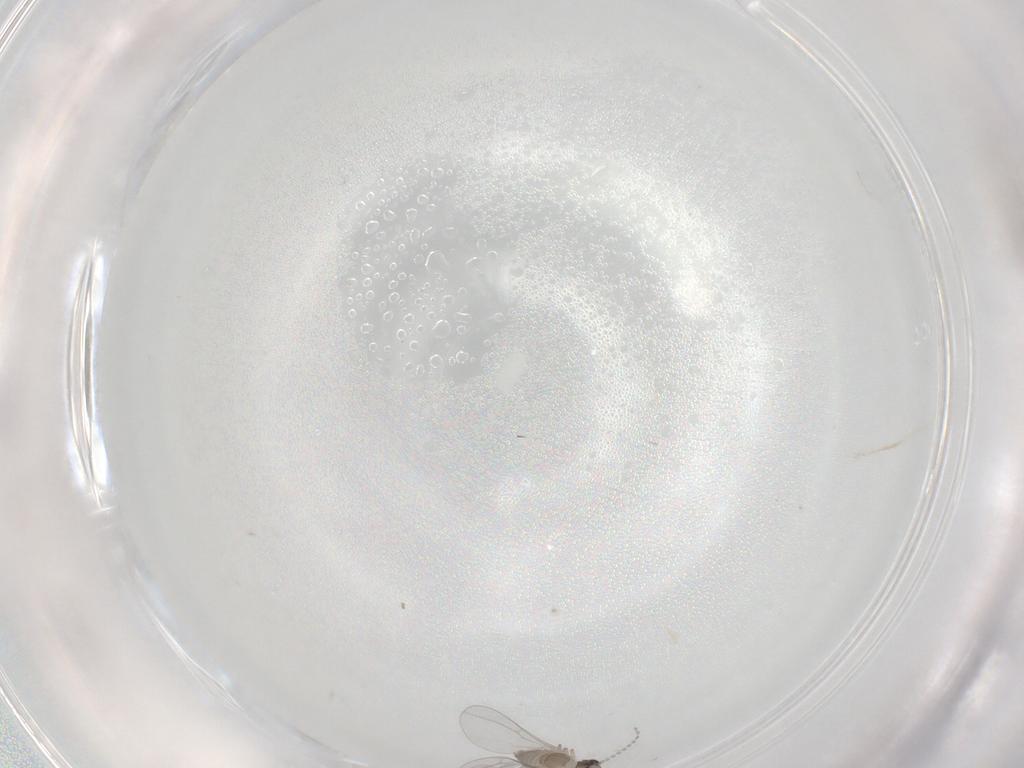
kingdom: Animalia
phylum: Arthropoda
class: Insecta
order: Diptera
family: Cecidomyiidae
